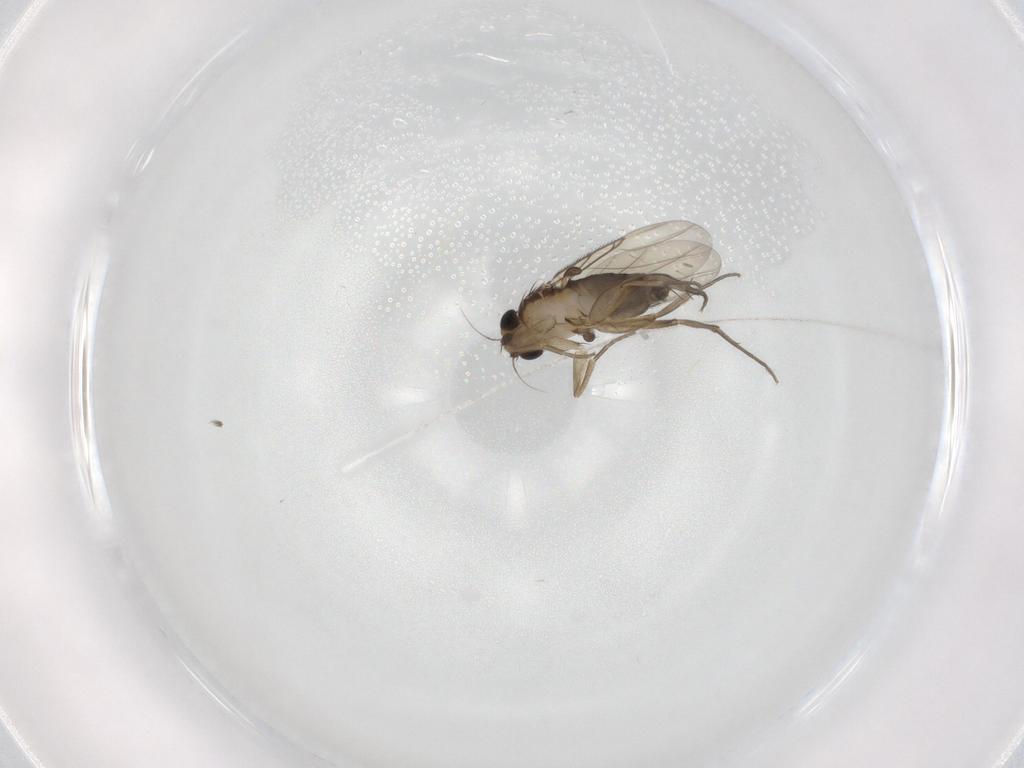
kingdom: Animalia
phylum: Arthropoda
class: Insecta
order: Diptera
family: Phoridae
